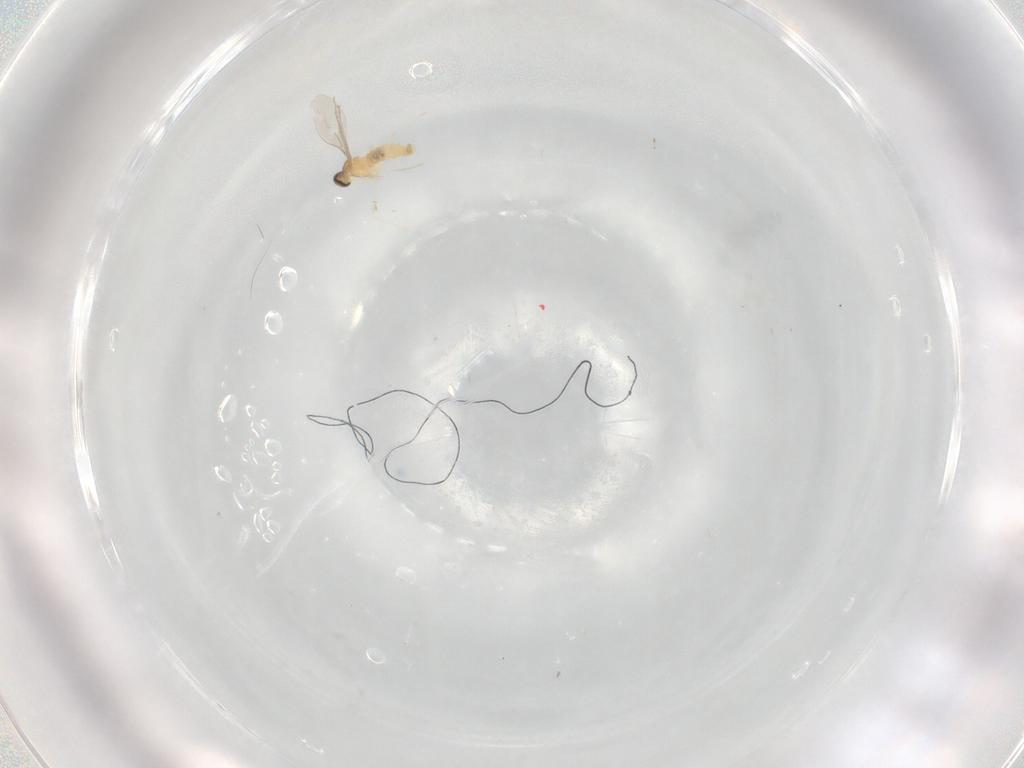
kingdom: Animalia
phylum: Arthropoda
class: Insecta
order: Diptera
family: Cecidomyiidae
